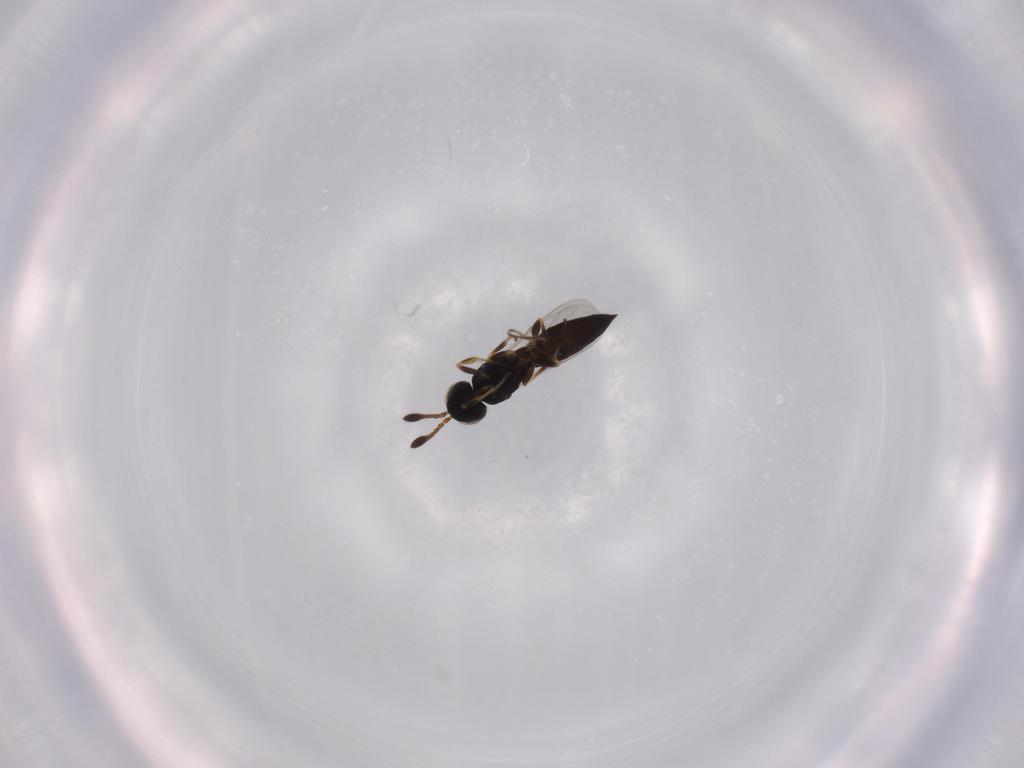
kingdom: Animalia
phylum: Arthropoda
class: Insecta
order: Hymenoptera
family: Scelionidae
